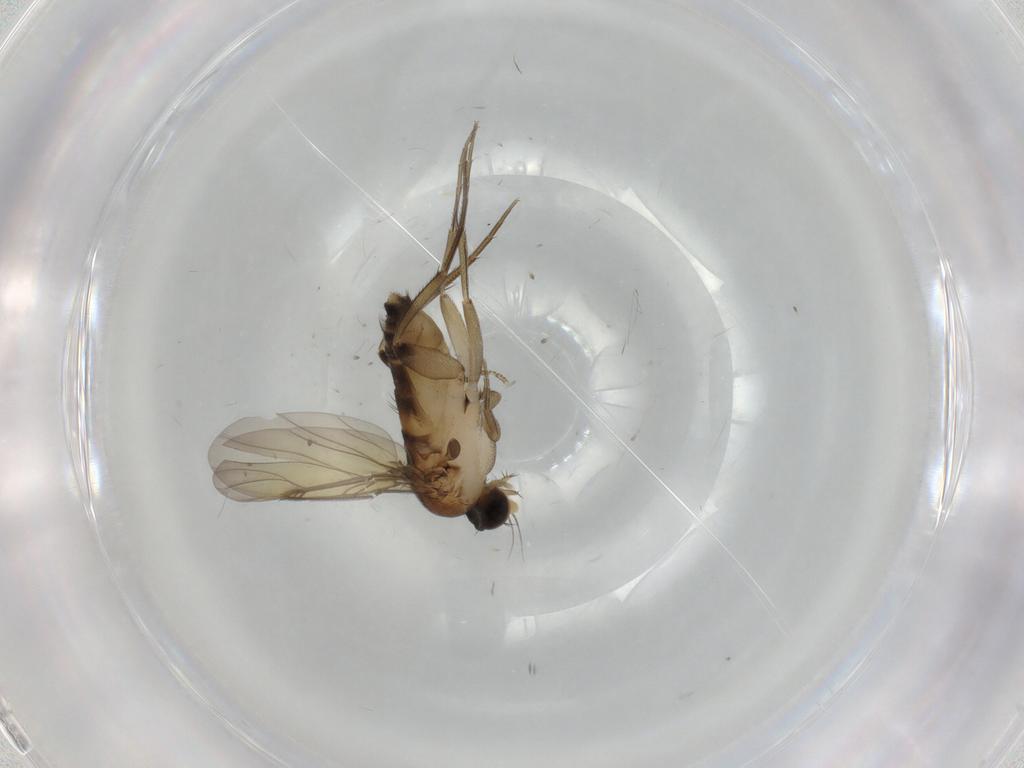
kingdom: Animalia
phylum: Arthropoda
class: Insecta
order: Diptera
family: Phoridae
